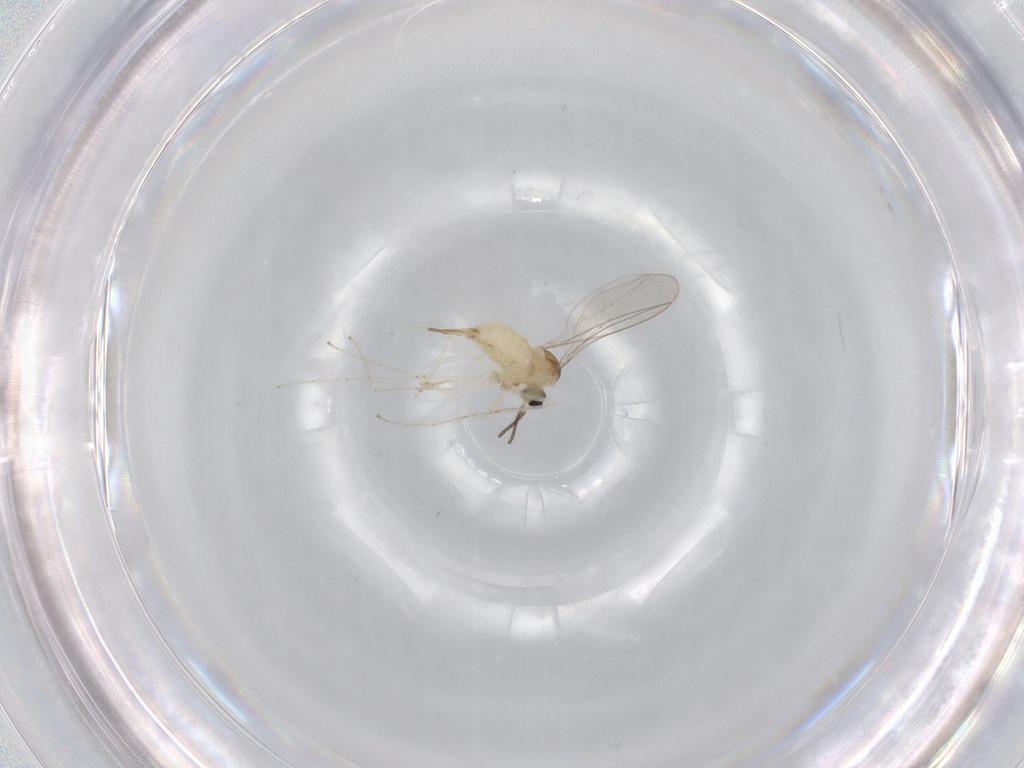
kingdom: Animalia
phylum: Arthropoda
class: Insecta
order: Diptera
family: Cecidomyiidae
